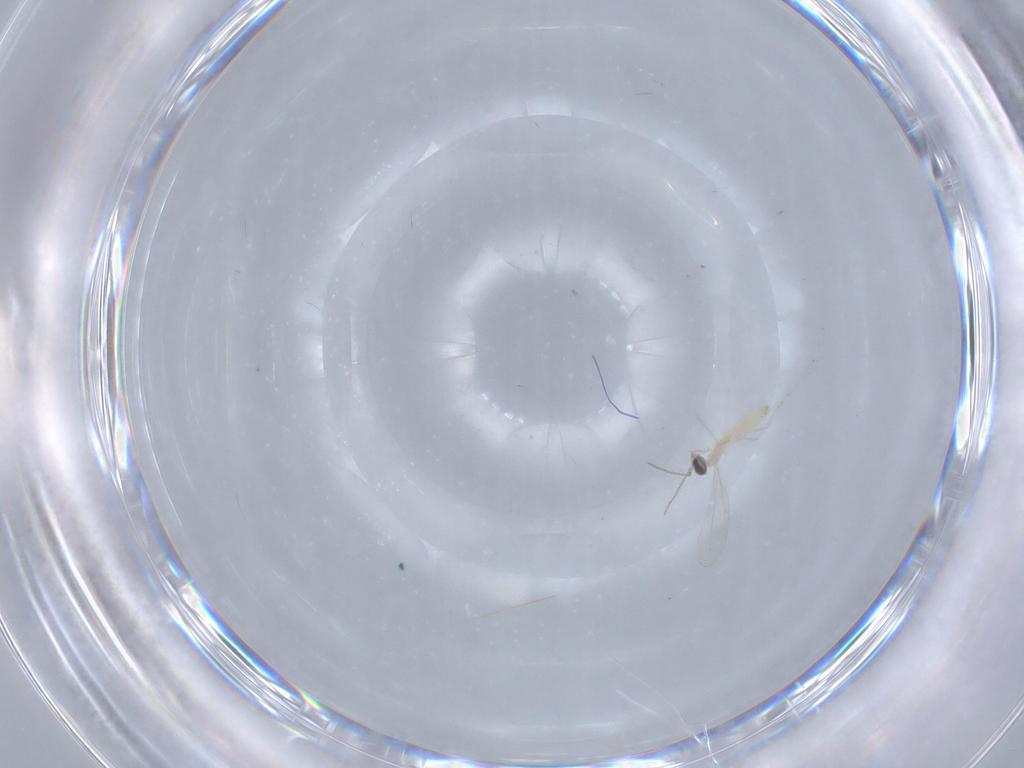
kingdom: Animalia
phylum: Arthropoda
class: Insecta
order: Diptera
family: Cecidomyiidae
